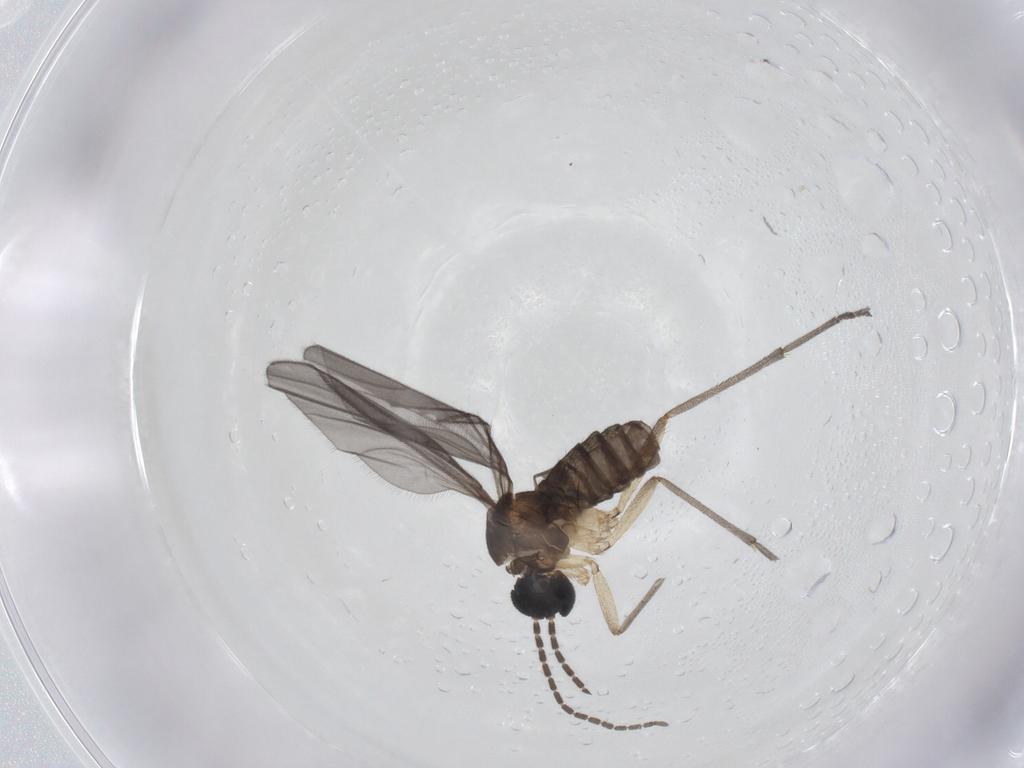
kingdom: Animalia
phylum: Arthropoda
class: Insecta
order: Diptera
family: Sciaridae
